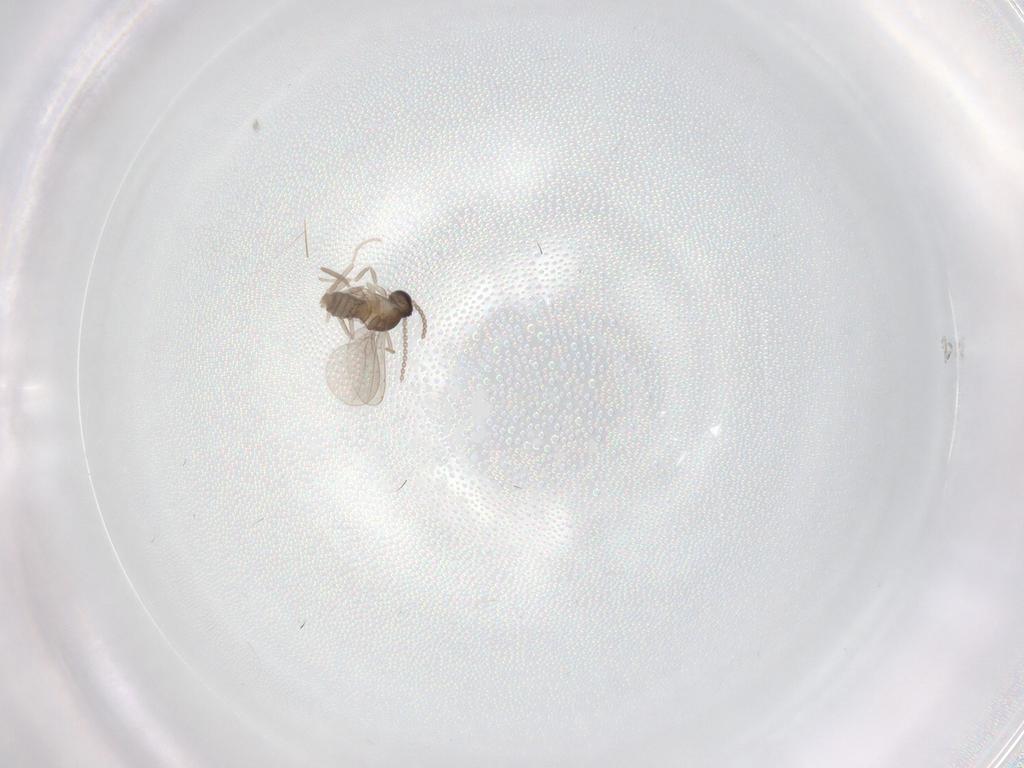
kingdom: Animalia
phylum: Arthropoda
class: Insecta
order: Diptera
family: Cecidomyiidae
